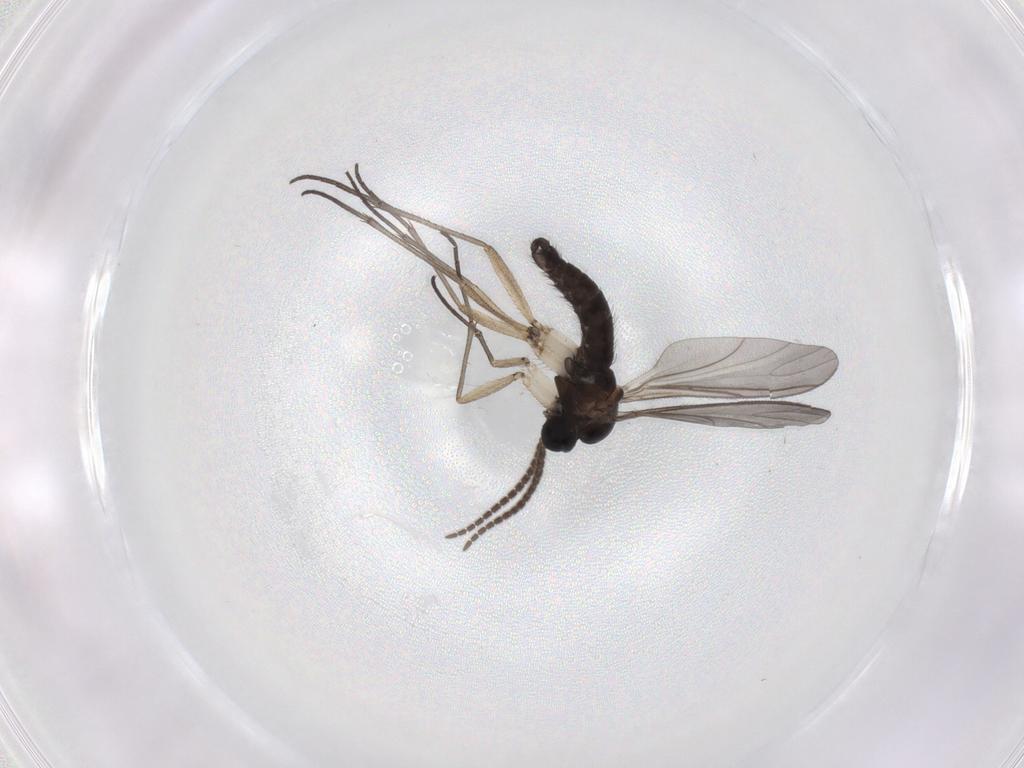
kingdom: Animalia
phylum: Arthropoda
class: Insecta
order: Diptera
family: Sciaridae
